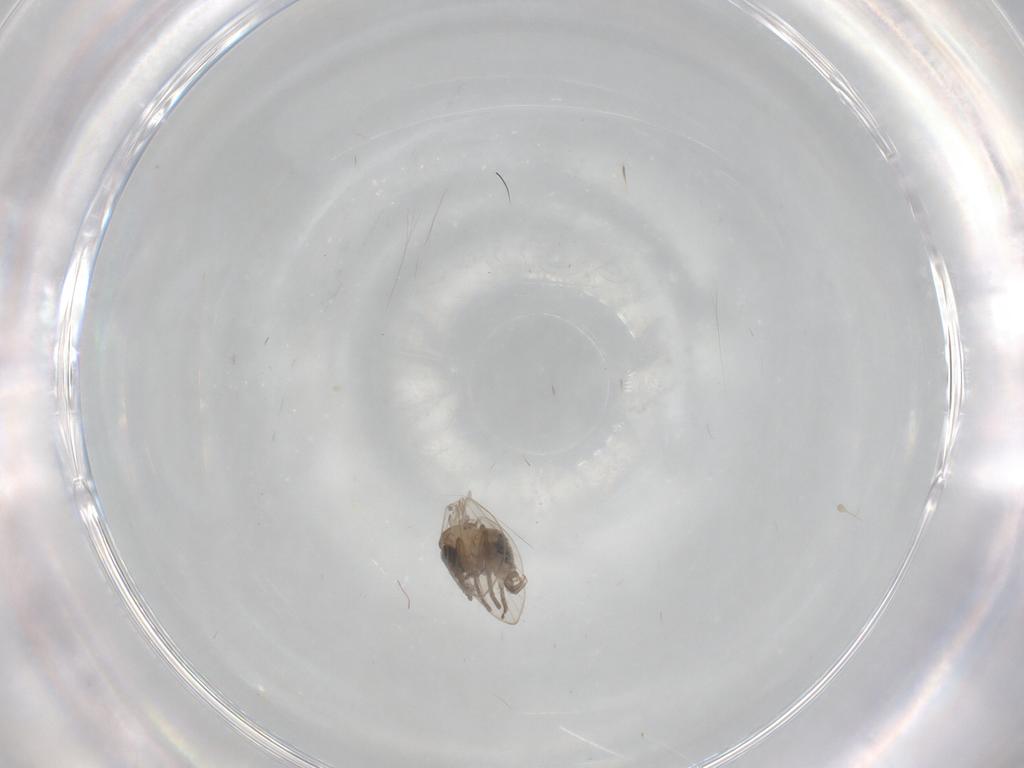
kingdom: Animalia
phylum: Arthropoda
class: Insecta
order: Diptera
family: Psychodidae
